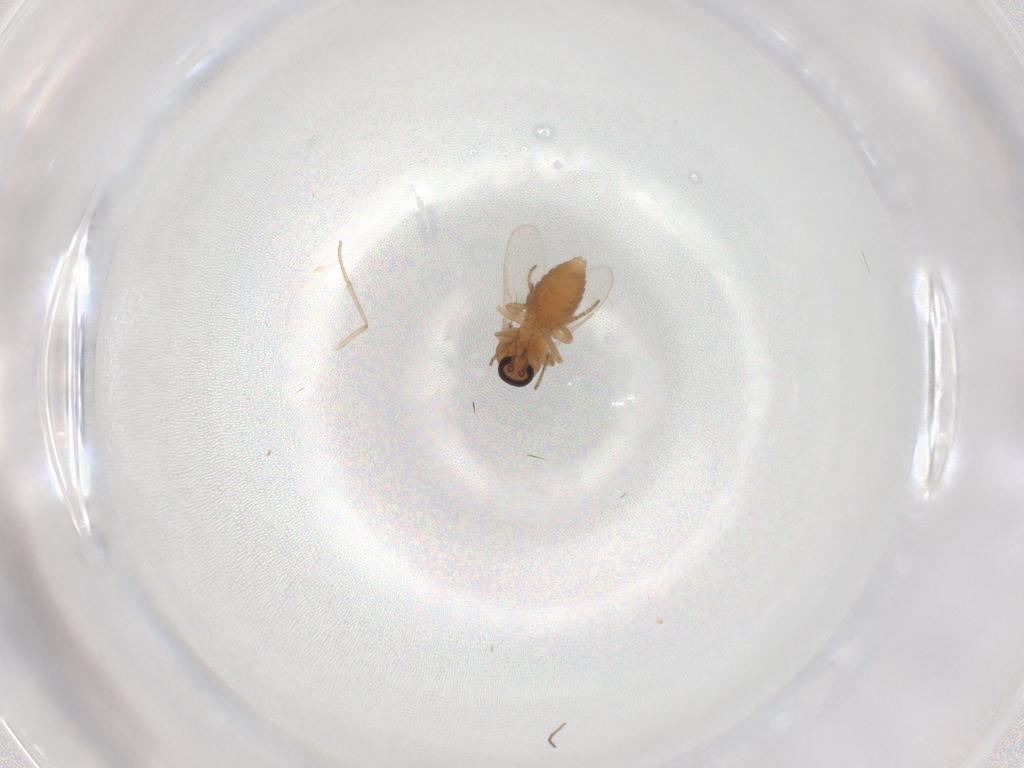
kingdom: Animalia
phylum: Arthropoda
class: Insecta
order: Diptera
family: Ceratopogonidae
